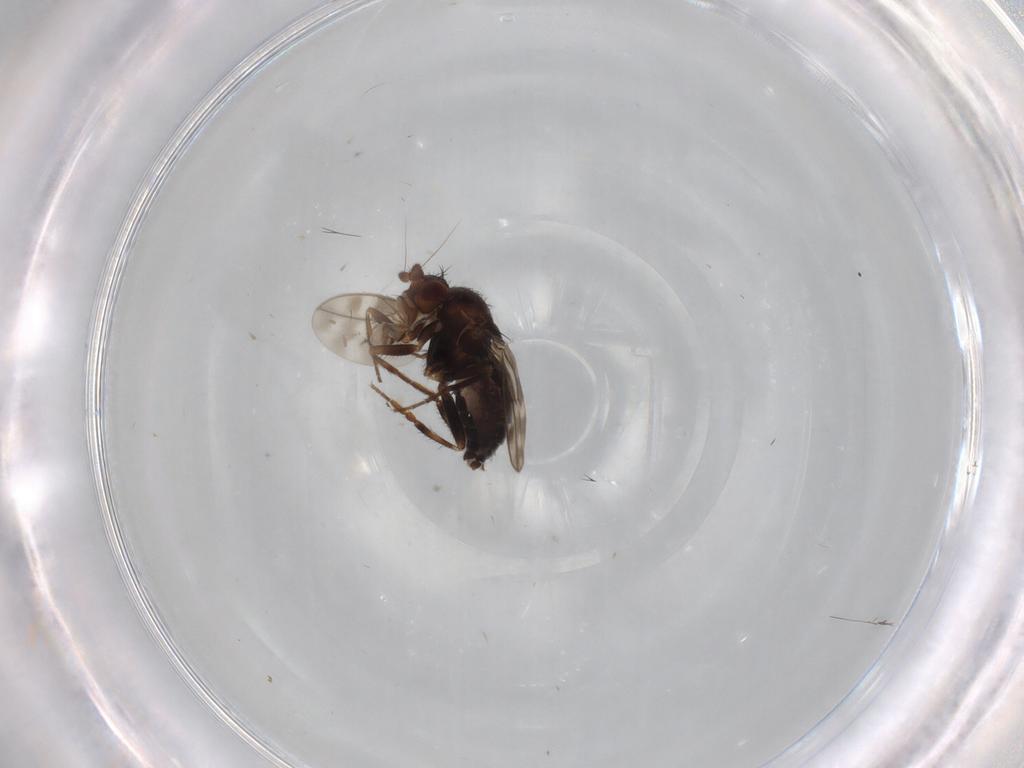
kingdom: Animalia
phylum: Arthropoda
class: Insecta
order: Diptera
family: Sphaeroceridae
